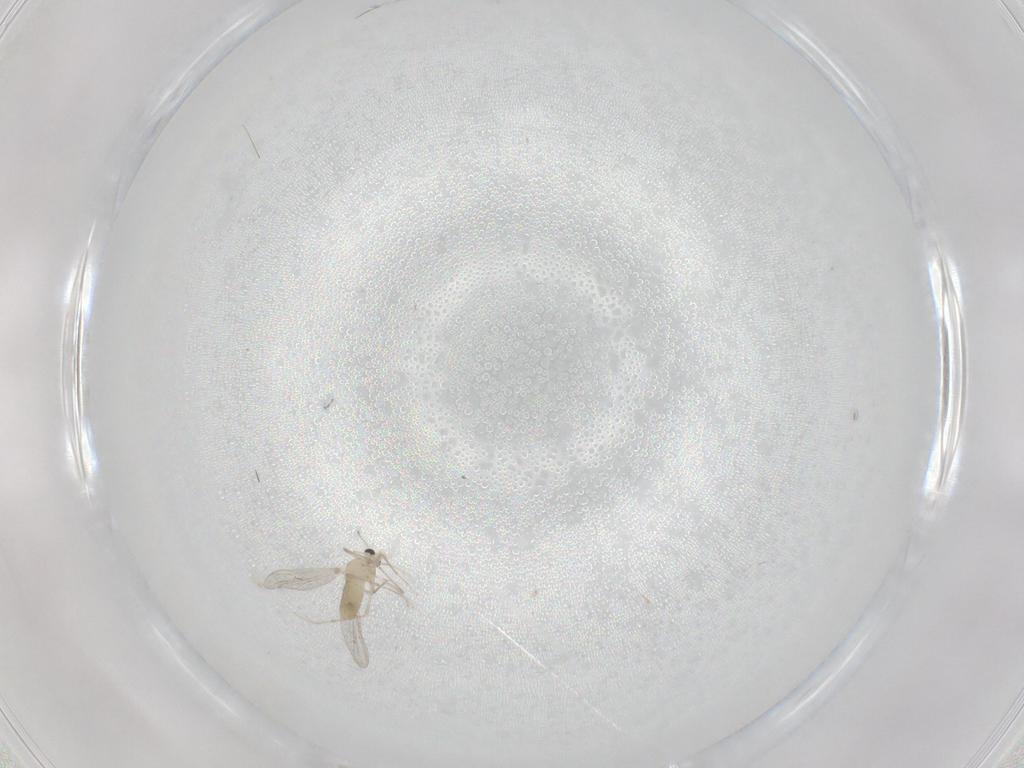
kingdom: Animalia
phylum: Arthropoda
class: Insecta
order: Diptera
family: Chironomidae
